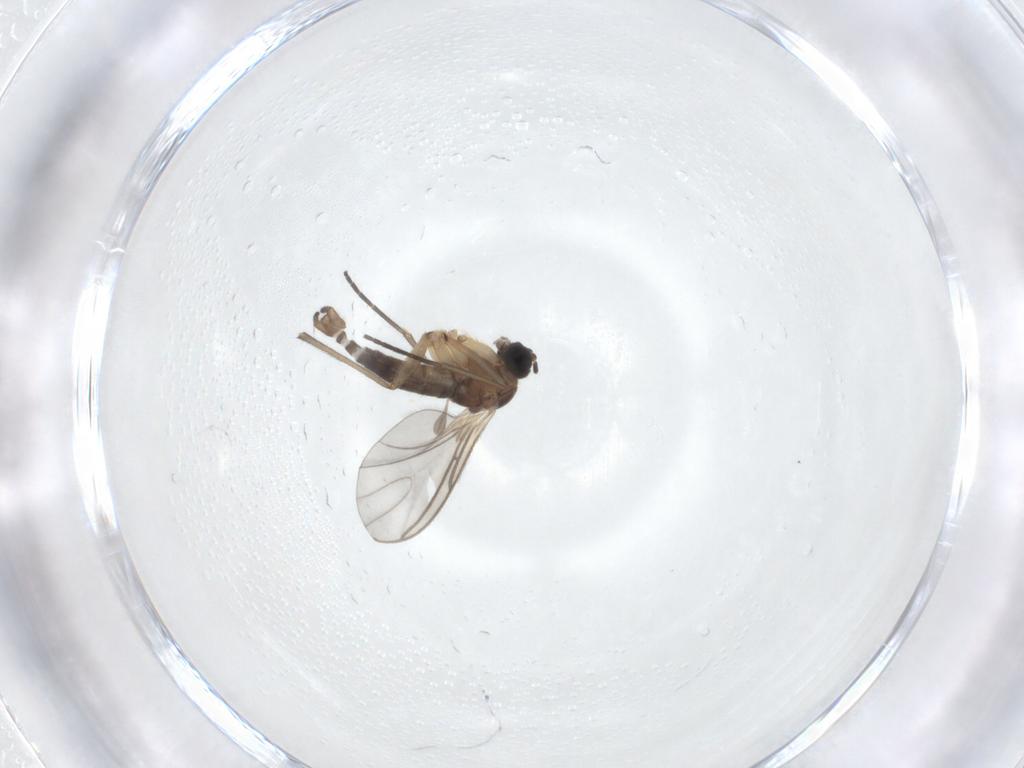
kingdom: Animalia
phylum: Arthropoda
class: Insecta
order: Diptera
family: Sciaridae
